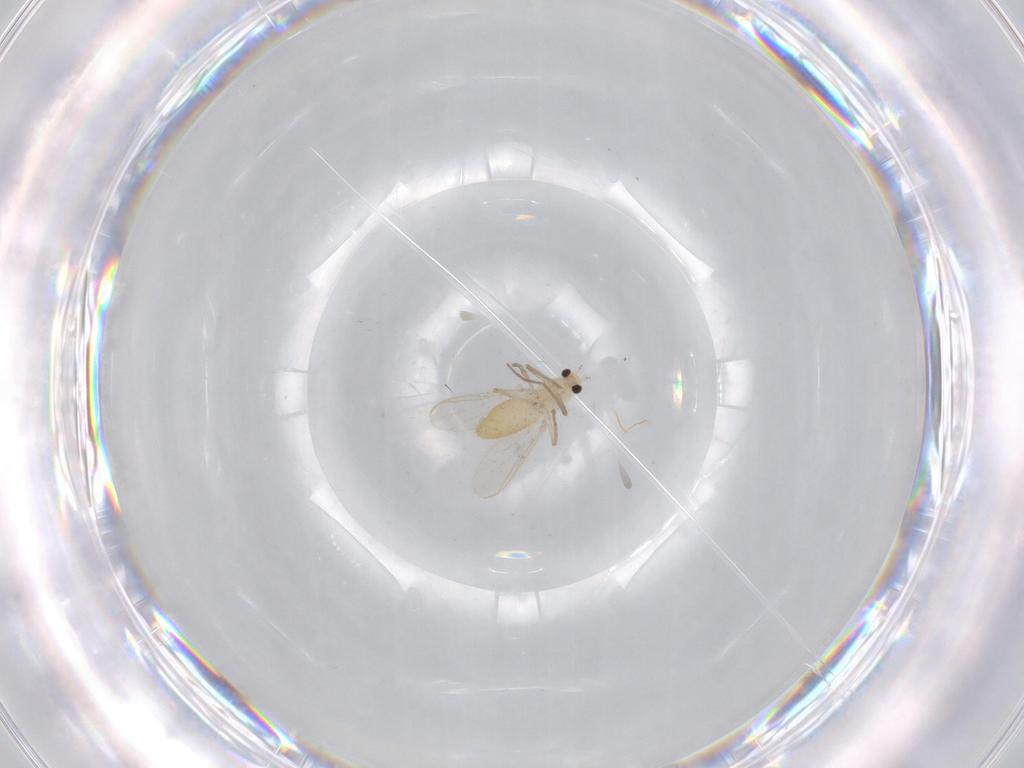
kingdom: Animalia
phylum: Arthropoda
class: Insecta
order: Diptera
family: Chironomidae
